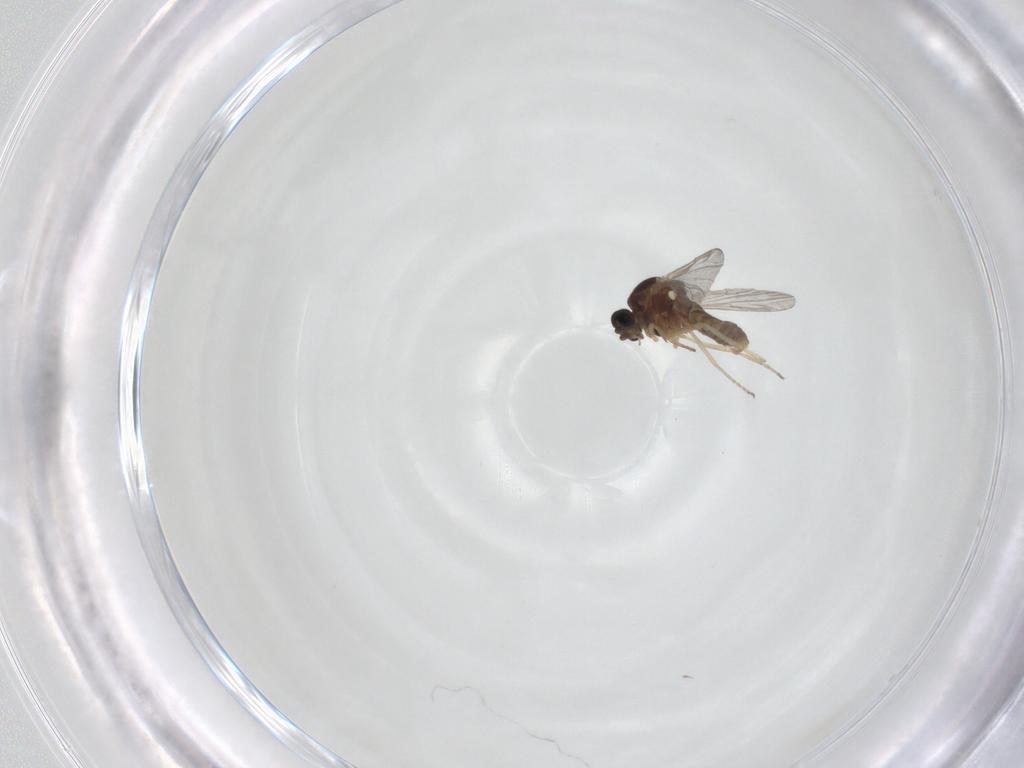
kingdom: Animalia
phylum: Arthropoda
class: Insecta
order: Diptera
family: Ceratopogonidae
